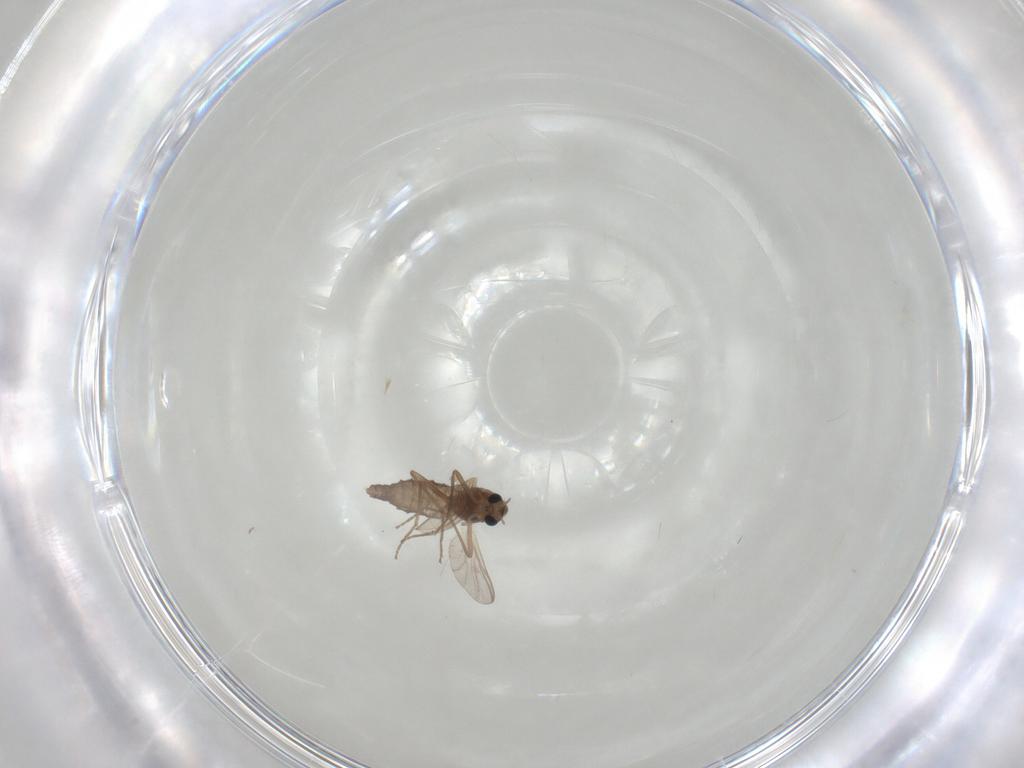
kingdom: Animalia
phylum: Arthropoda
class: Insecta
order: Diptera
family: Chironomidae
